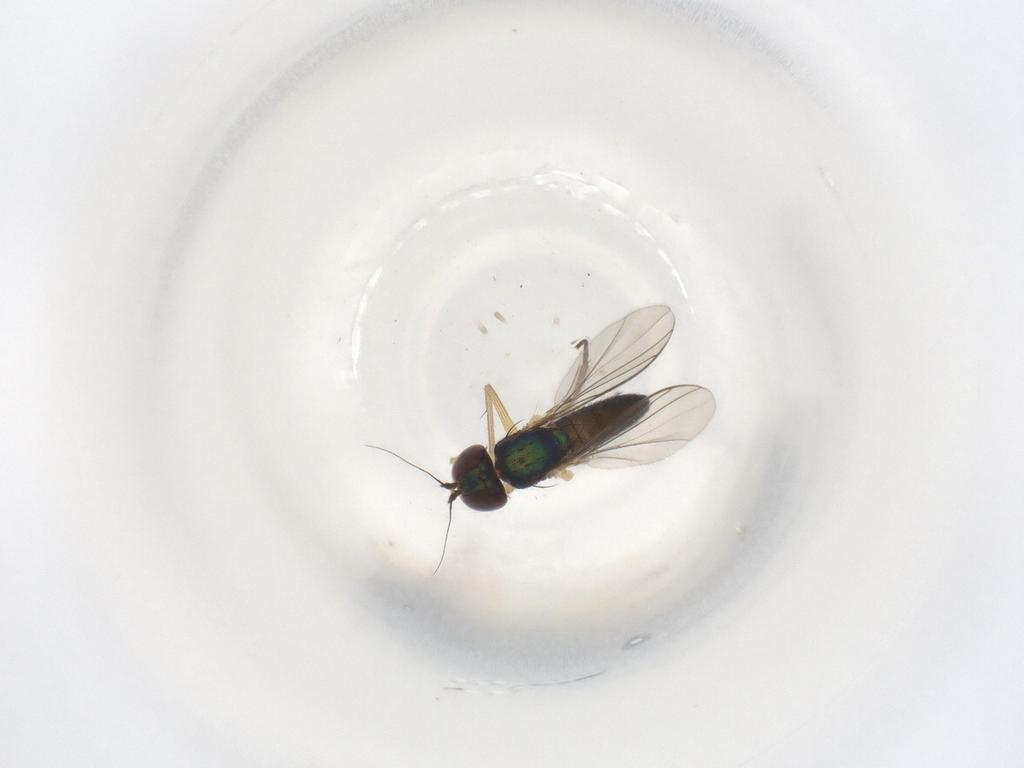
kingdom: Animalia
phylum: Arthropoda
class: Insecta
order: Diptera
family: Dolichopodidae
